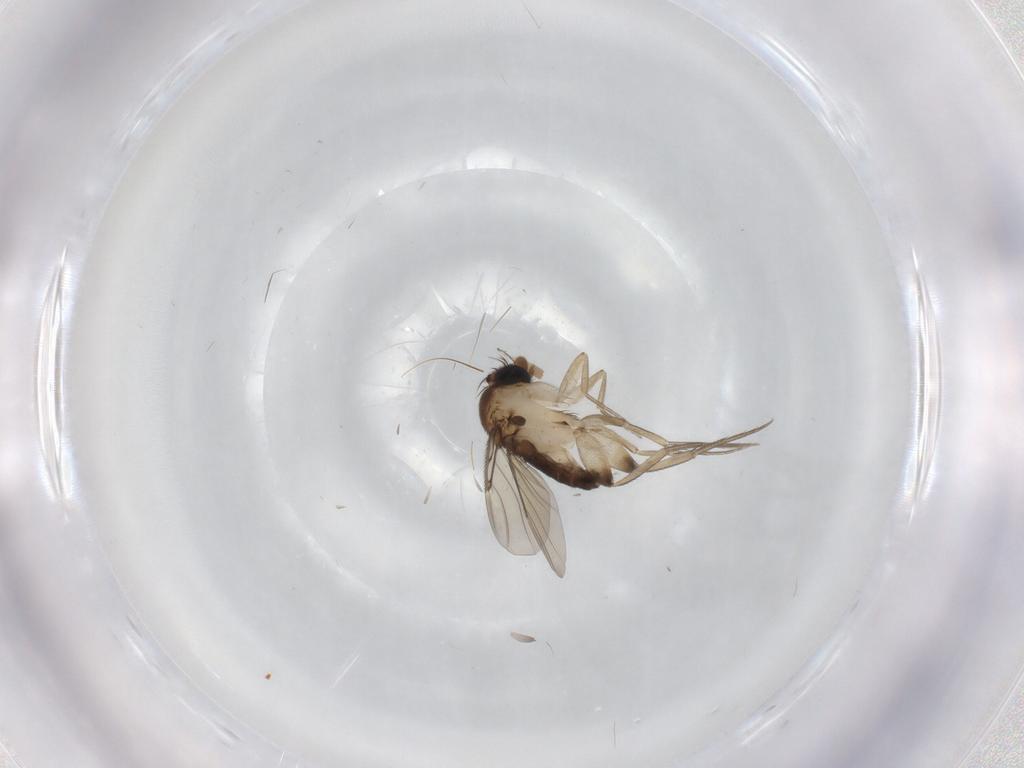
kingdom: Animalia
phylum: Arthropoda
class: Insecta
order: Diptera
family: Phoridae
